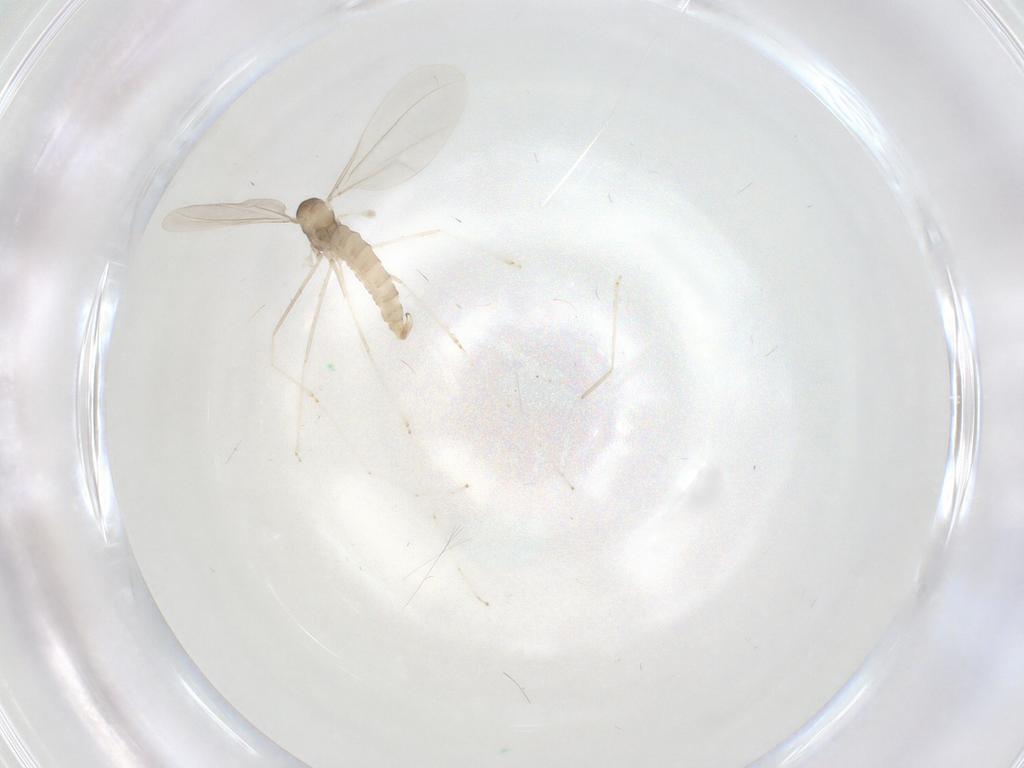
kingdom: Animalia
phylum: Arthropoda
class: Insecta
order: Diptera
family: Cecidomyiidae
